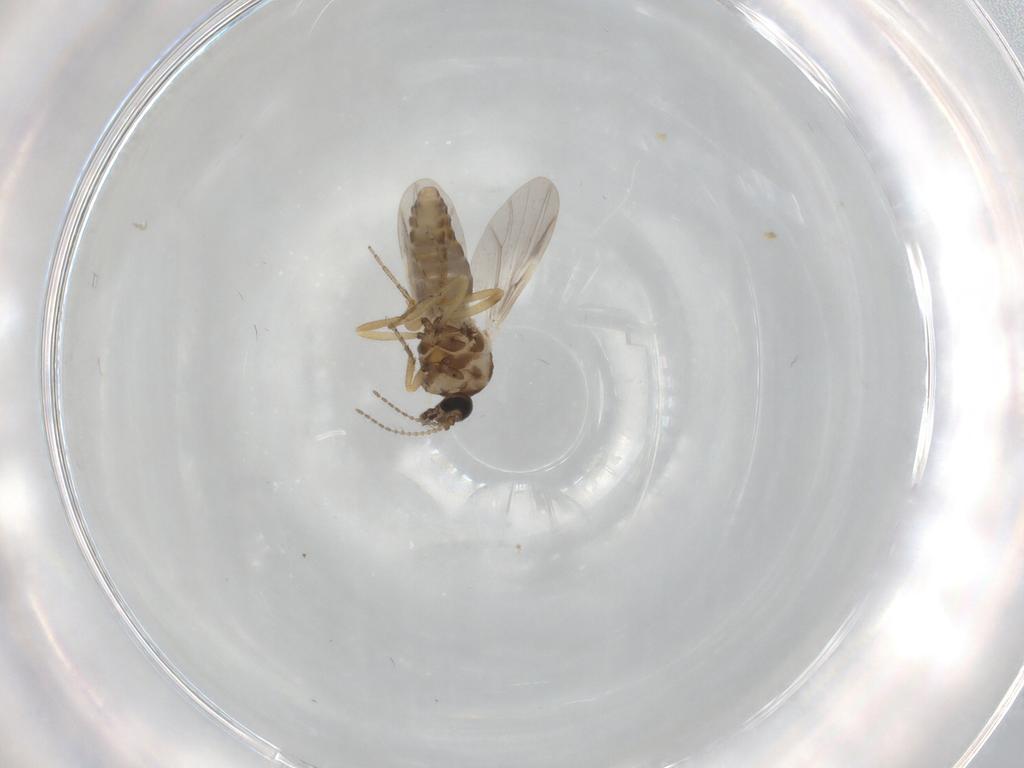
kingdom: Animalia
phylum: Arthropoda
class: Insecta
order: Diptera
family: Ceratopogonidae
